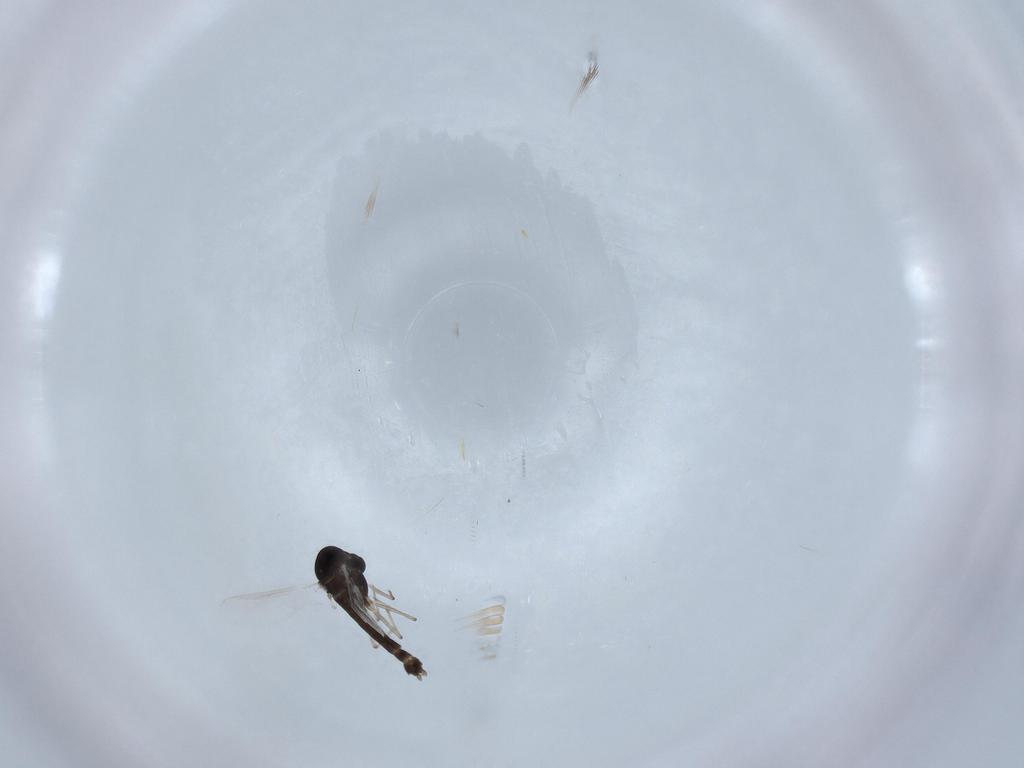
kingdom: Animalia
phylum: Arthropoda
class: Insecta
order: Diptera
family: Chironomidae
